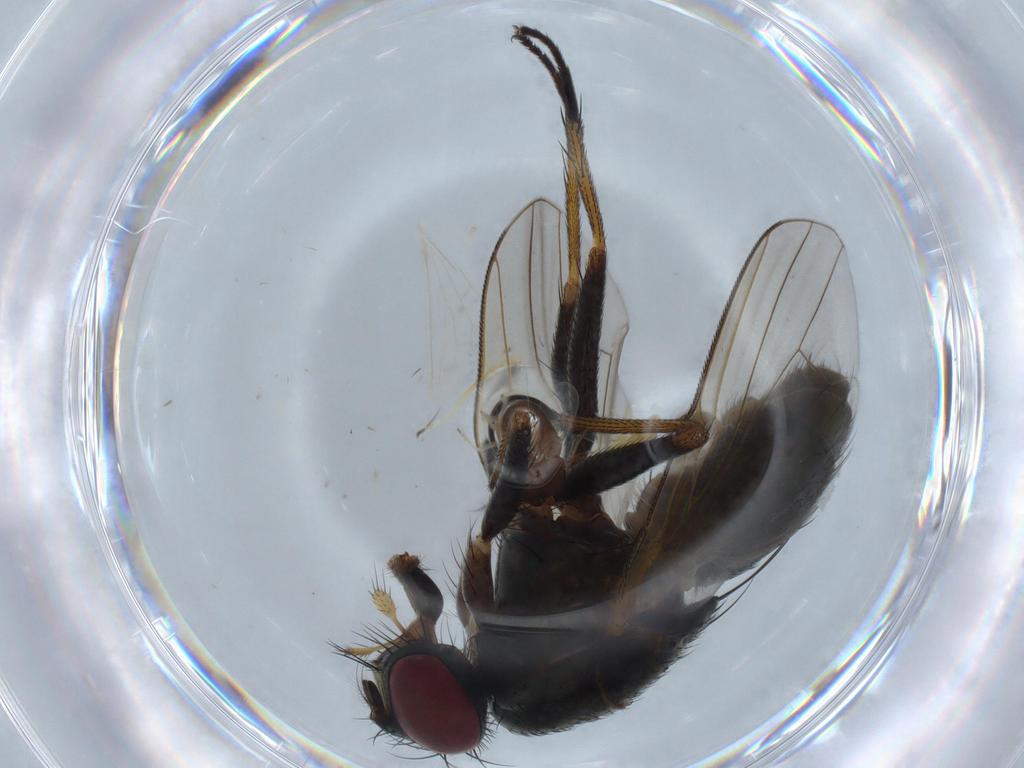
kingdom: Animalia
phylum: Arthropoda
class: Insecta
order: Diptera
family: Muscidae
